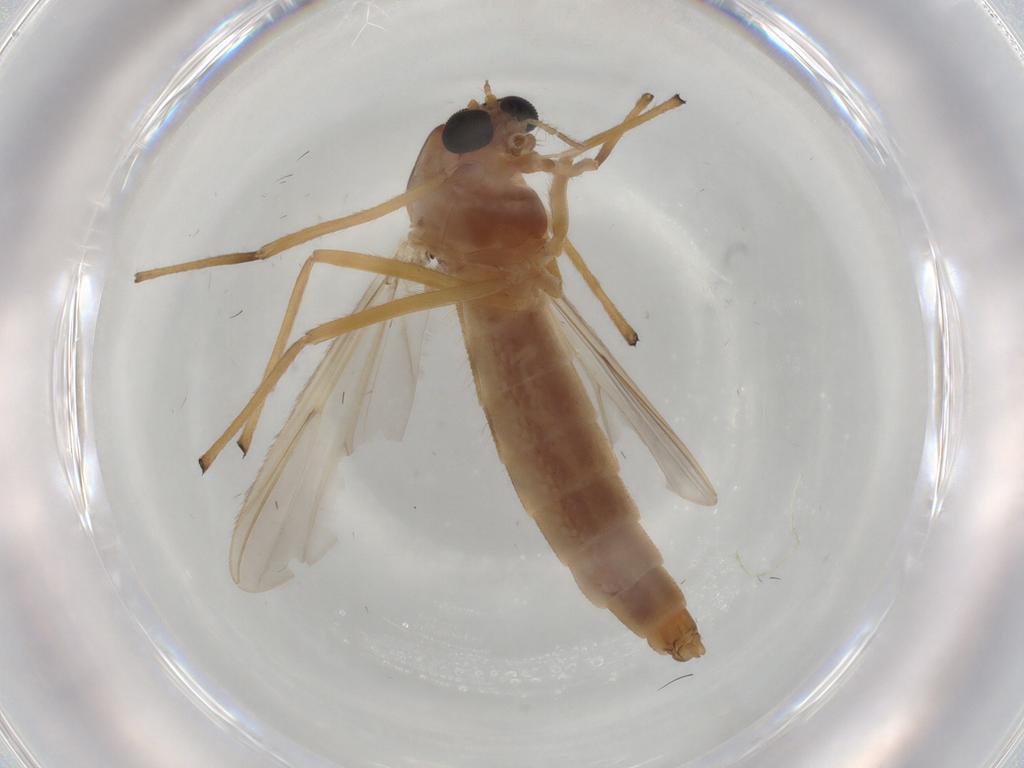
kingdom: Animalia
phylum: Arthropoda
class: Insecta
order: Diptera
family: Dolichopodidae
